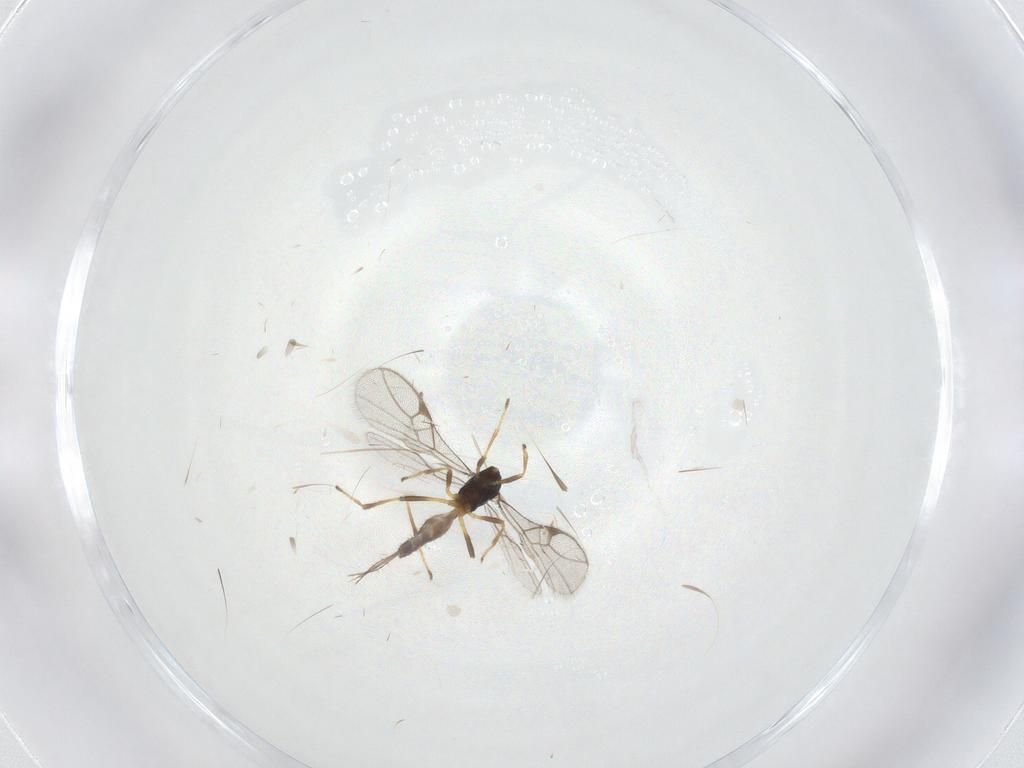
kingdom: Animalia
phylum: Arthropoda
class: Insecta
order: Hymenoptera
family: Braconidae
